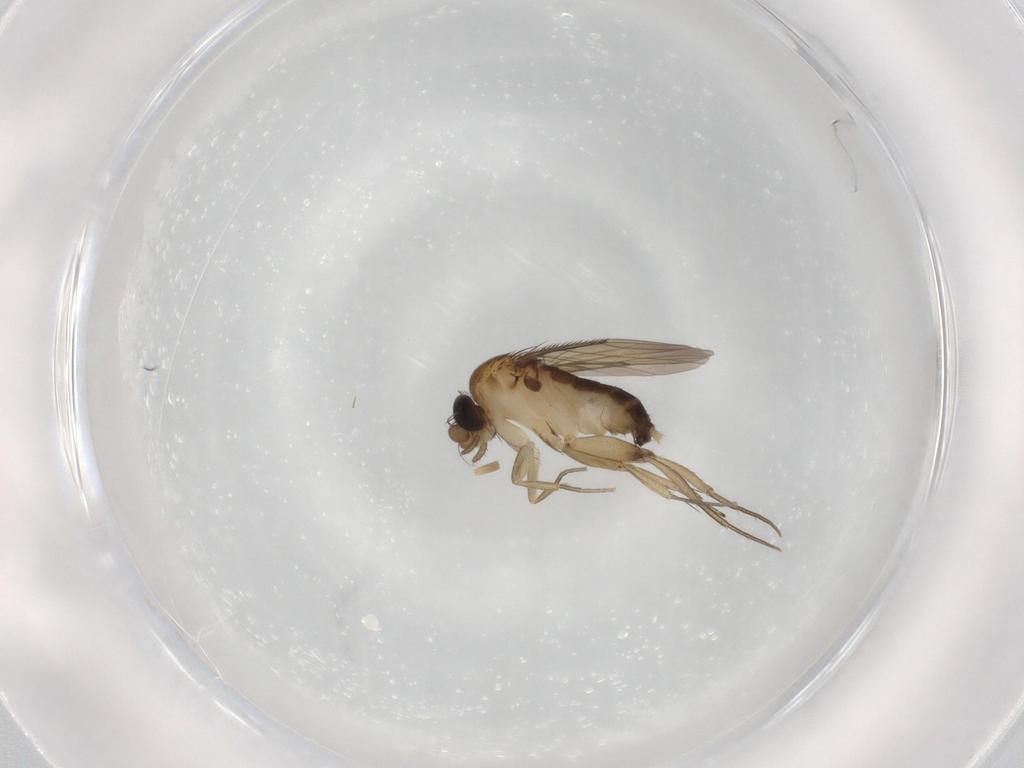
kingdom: Animalia
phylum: Arthropoda
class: Insecta
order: Diptera
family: Phoridae
